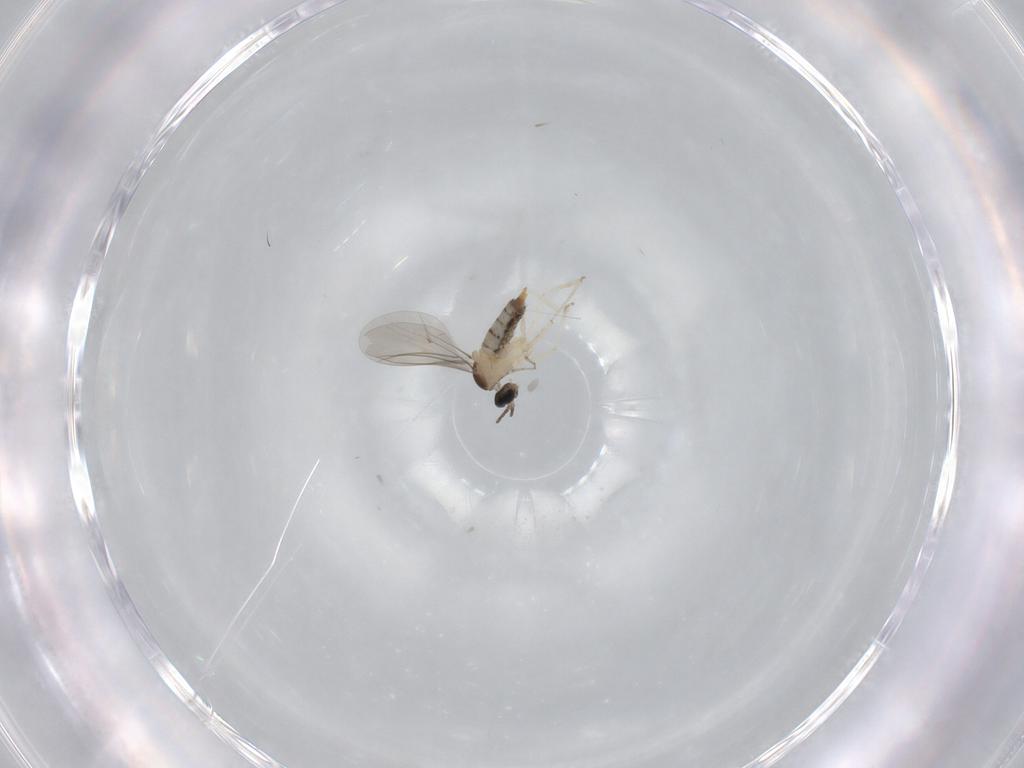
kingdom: Animalia
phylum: Arthropoda
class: Insecta
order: Diptera
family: Cecidomyiidae
